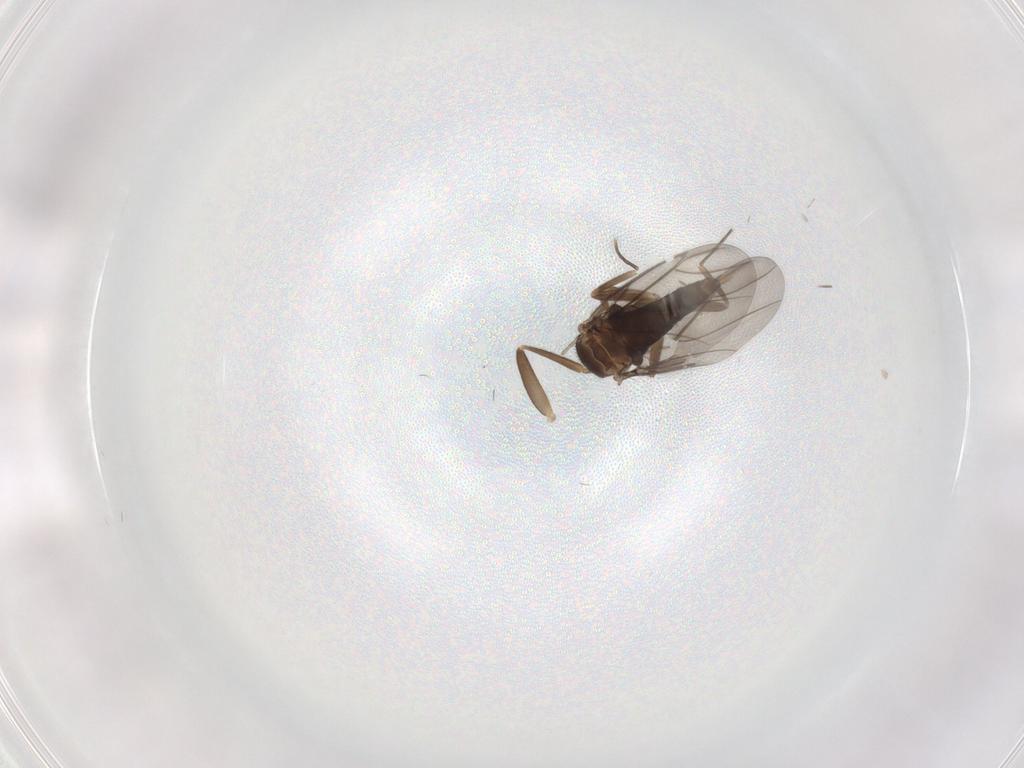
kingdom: Animalia
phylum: Arthropoda
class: Insecta
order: Diptera
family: Phoridae
